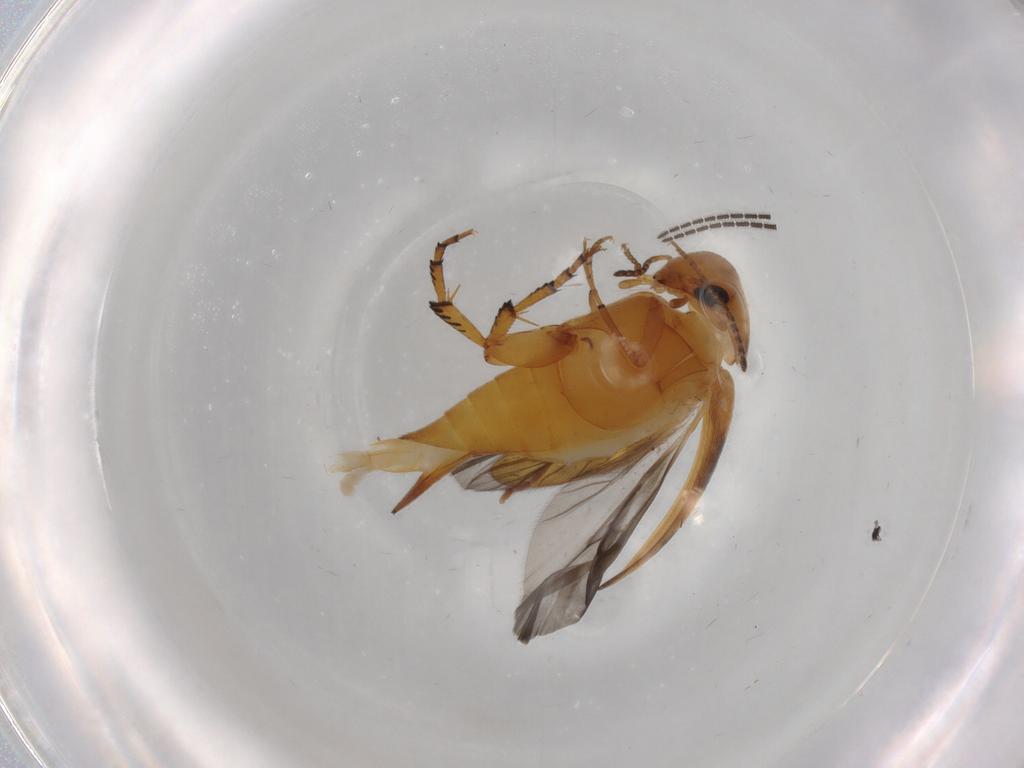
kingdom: Animalia
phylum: Arthropoda
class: Insecta
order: Coleoptera
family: Mordellidae
